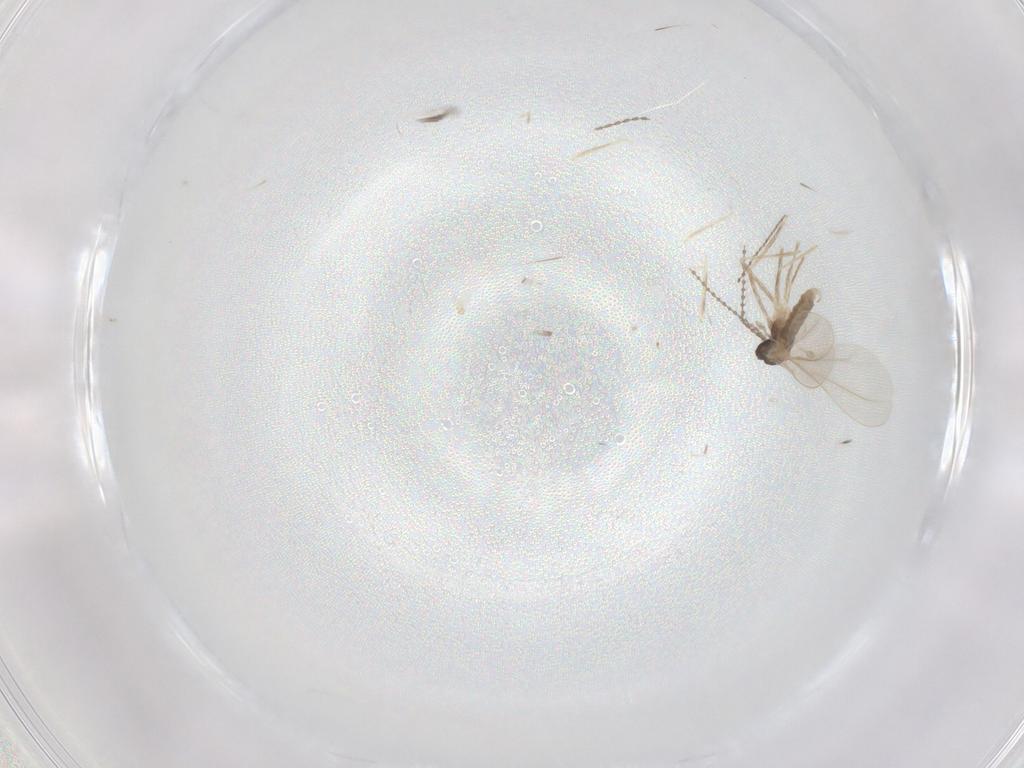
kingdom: Animalia
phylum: Arthropoda
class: Insecta
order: Diptera
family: Cecidomyiidae
